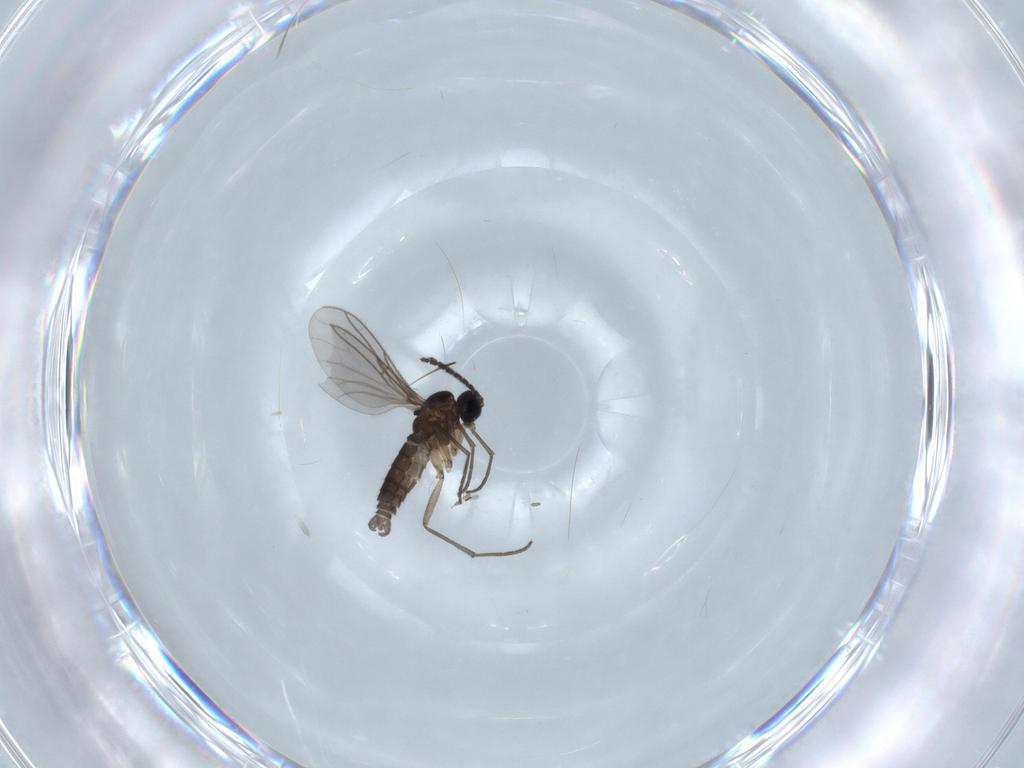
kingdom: Animalia
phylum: Arthropoda
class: Insecta
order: Diptera
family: Sciaridae
